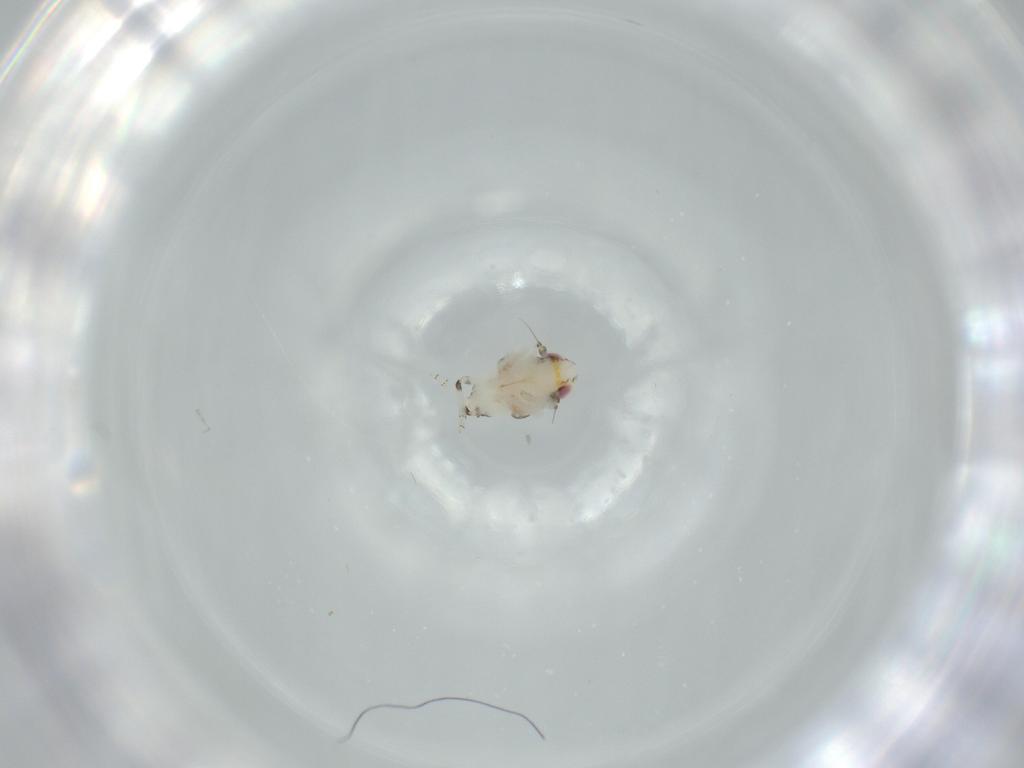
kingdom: Animalia
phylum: Arthropoda
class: Insecta
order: Hemiptera
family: Nogodinidae
